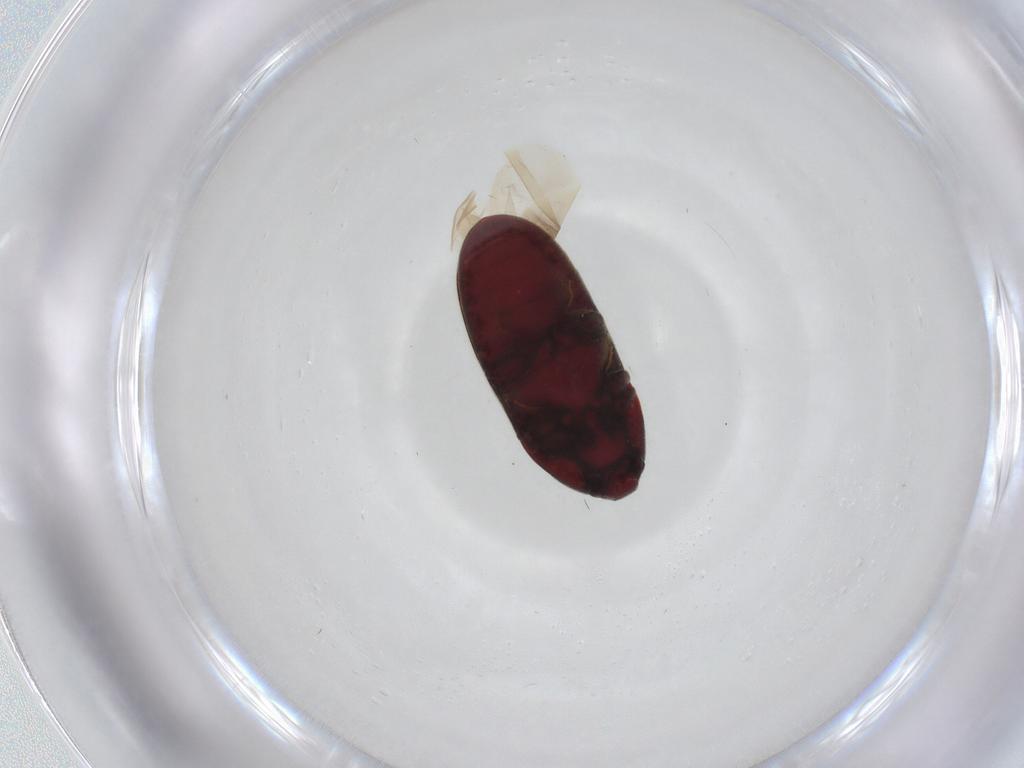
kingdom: Animalia
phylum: Arthropoda
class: Insecta
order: Coleoptera
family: Throscidae
